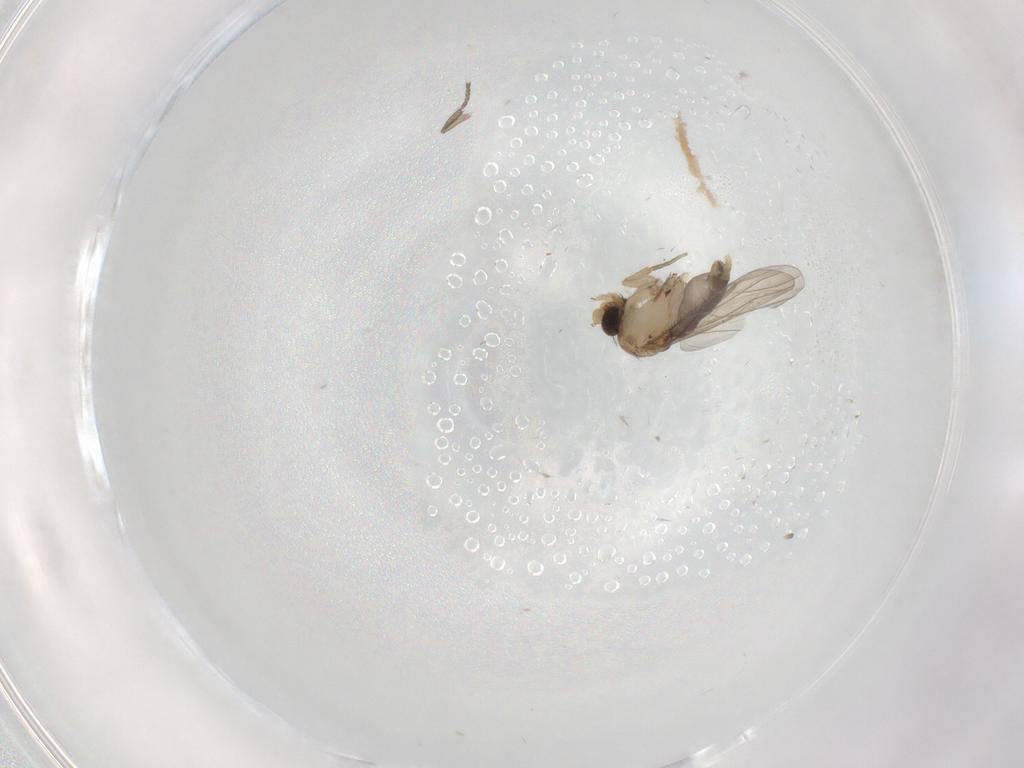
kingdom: Animalia
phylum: Arthropoda
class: Insecta
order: Diptera
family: Phoridae
